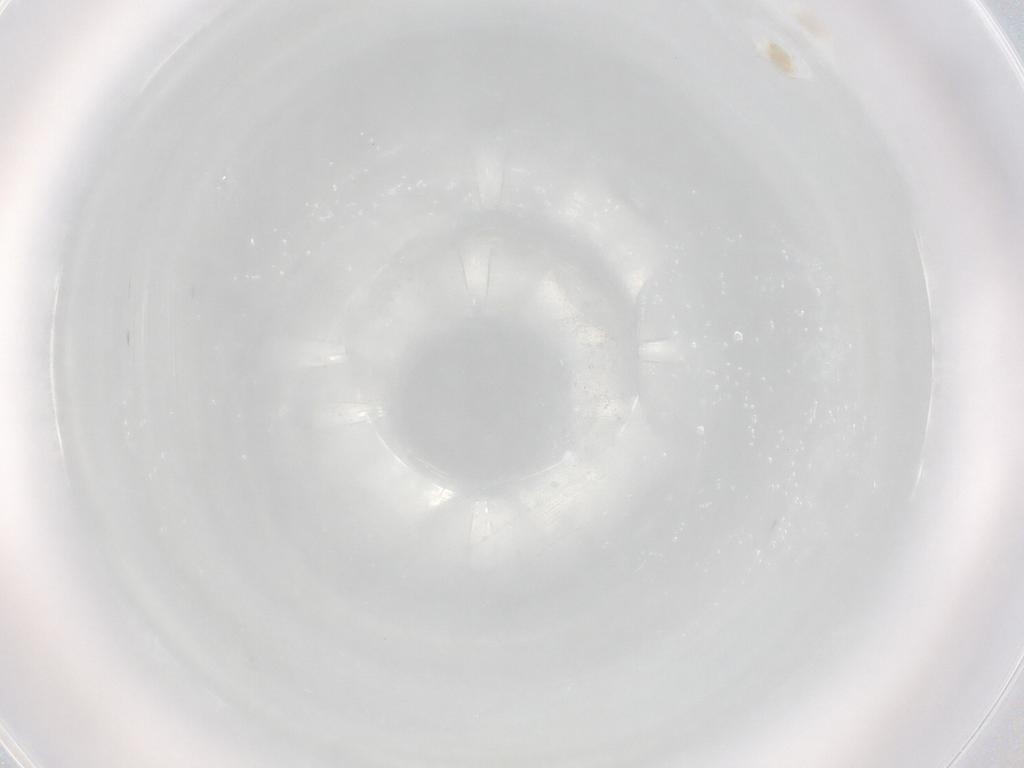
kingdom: Animalia
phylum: Arthropoda
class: Arachnida
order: Trombidiformes
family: Anystidae
